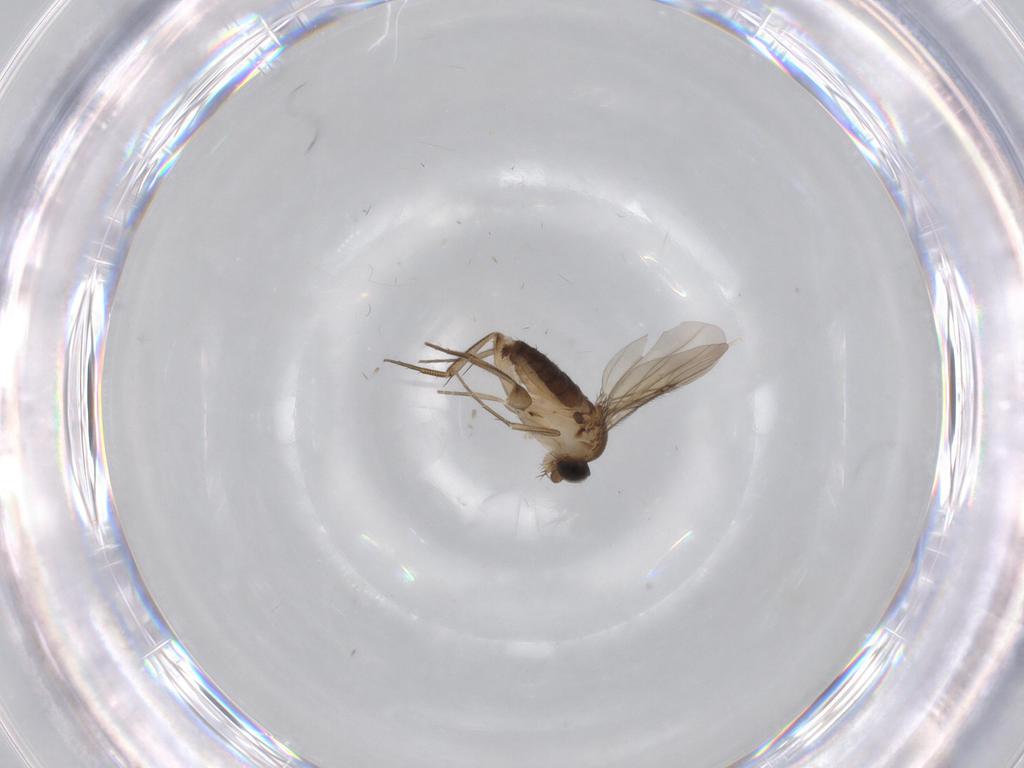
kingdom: Animalia
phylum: Arthropoda
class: Insecta
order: Diptera
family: Phoridae
